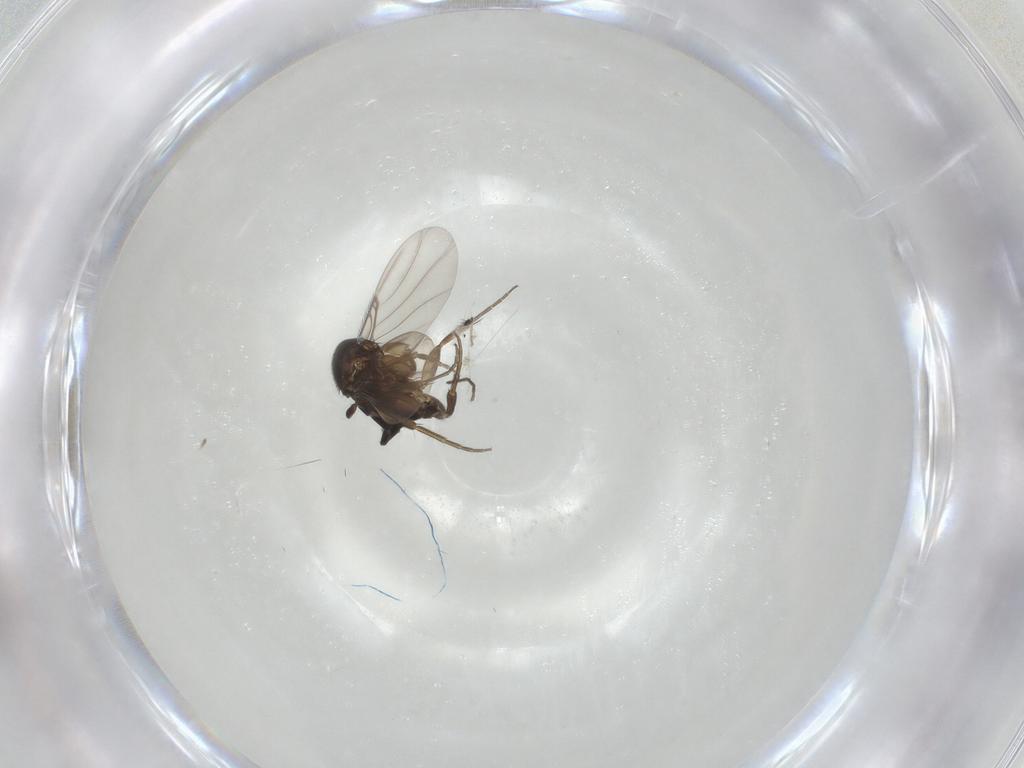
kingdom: Animalia
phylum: Arthropoda
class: Insecta
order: Diptera
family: Phoridae
